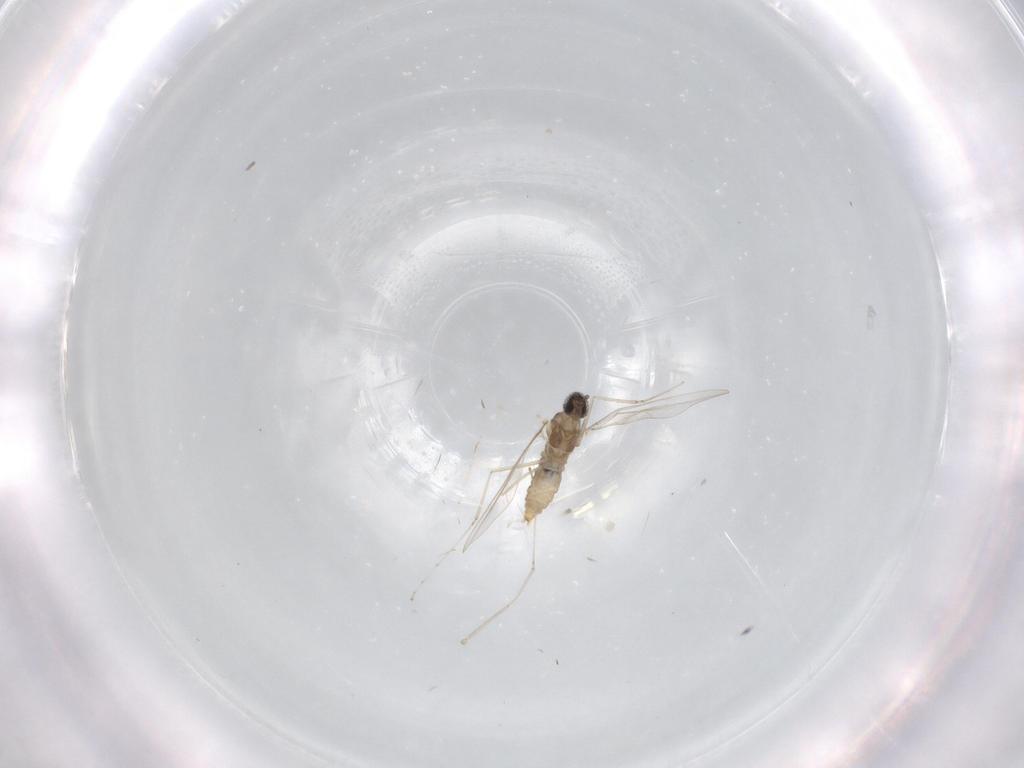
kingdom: Animalia
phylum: Arthropoda
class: Insecta
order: Diptera
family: Cecidomyiidae
